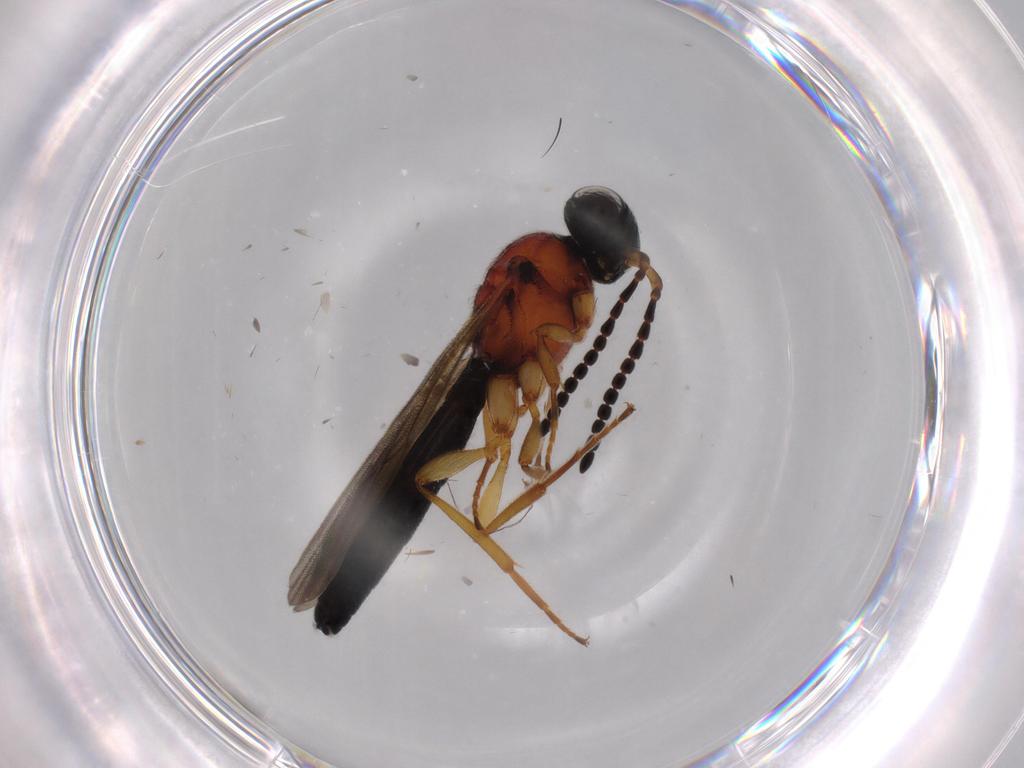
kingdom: Animalia
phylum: Arthropoda
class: Insecta
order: Hymenoptera
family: Scelionidae
